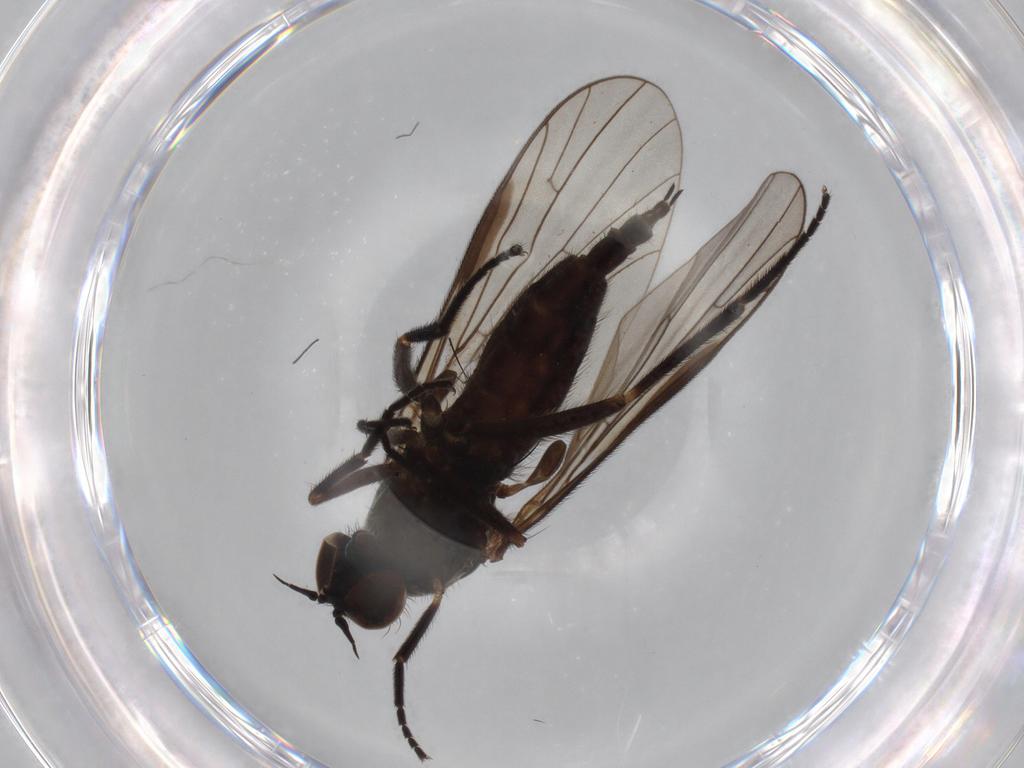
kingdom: Animalia
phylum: Arthropoda
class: Insecta
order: Diptera
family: Empididae
